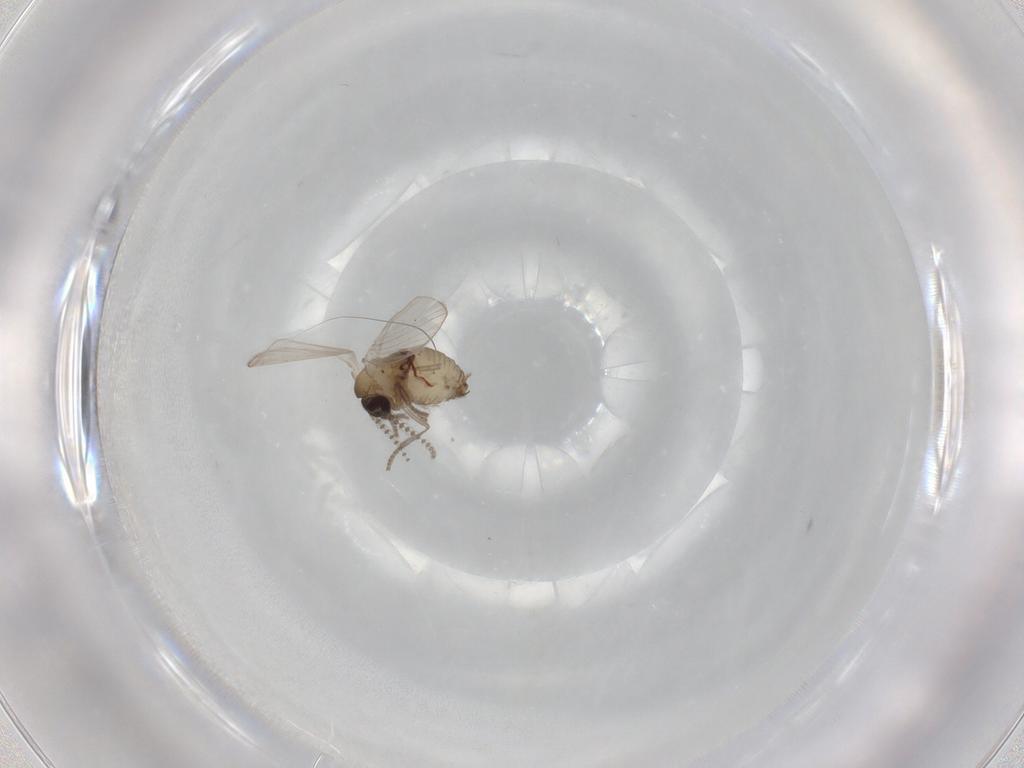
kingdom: Animalia
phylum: Arthropoda
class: Insecta
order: Diptera
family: Psychodidae
